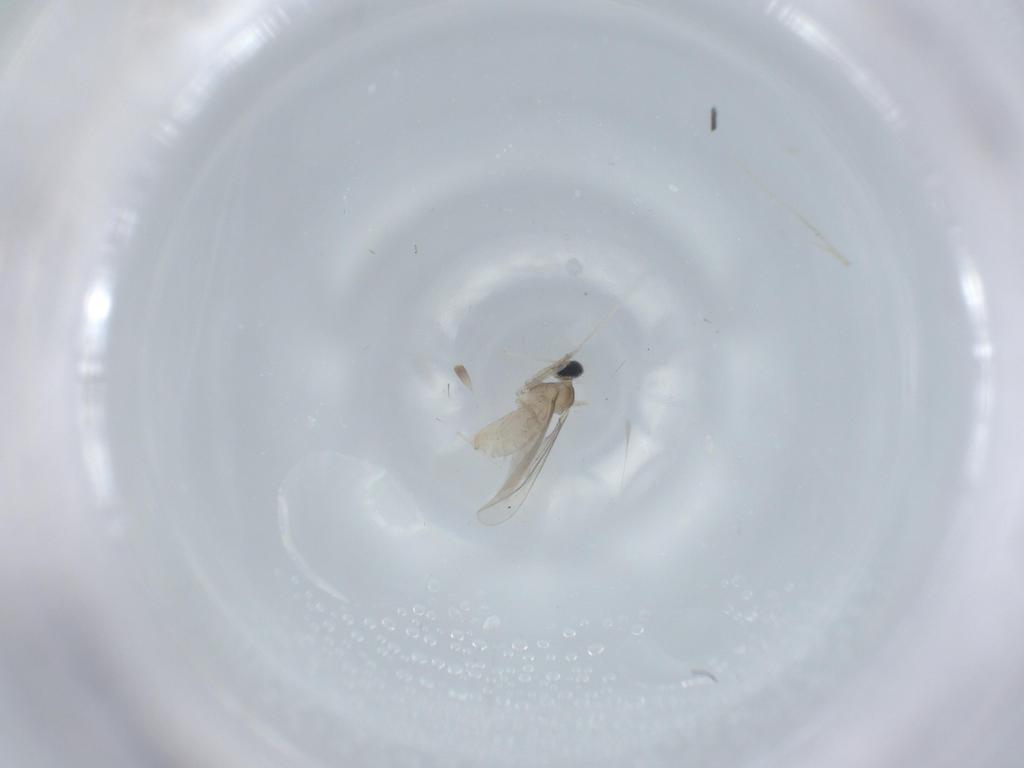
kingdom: Animalia
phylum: Arthropoda
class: Insecta
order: Diptera
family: Cecidomyiidae
